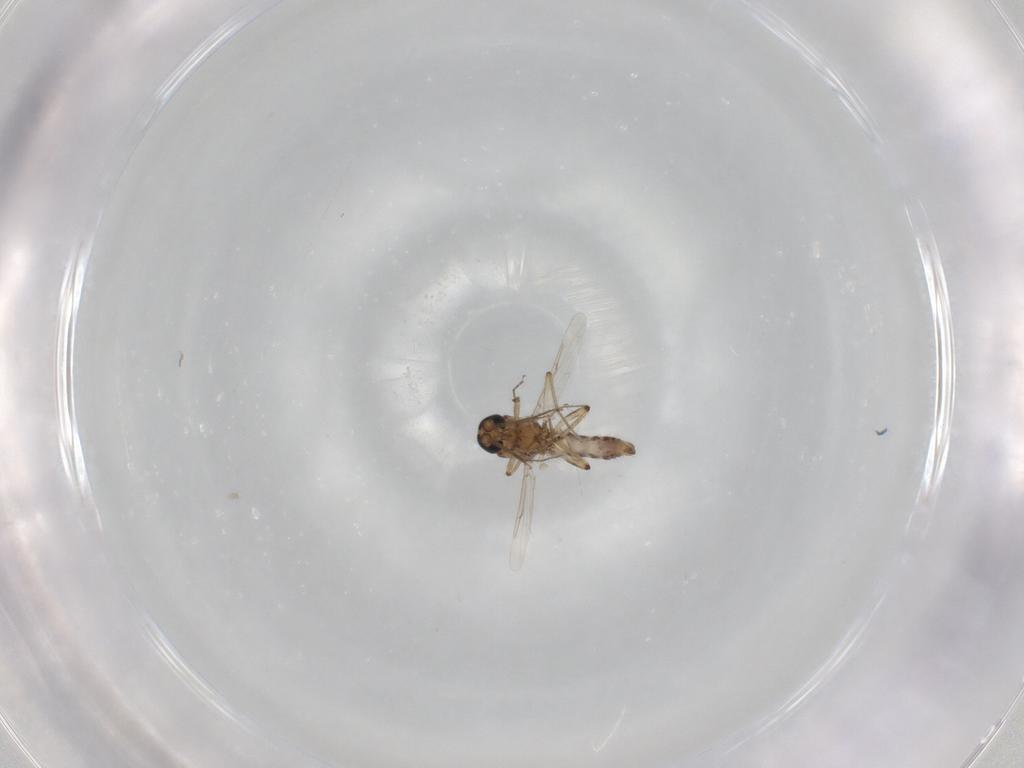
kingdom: Animalia
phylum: Arthropoda
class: Insecta
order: Diptera
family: Ceratopogonidae
